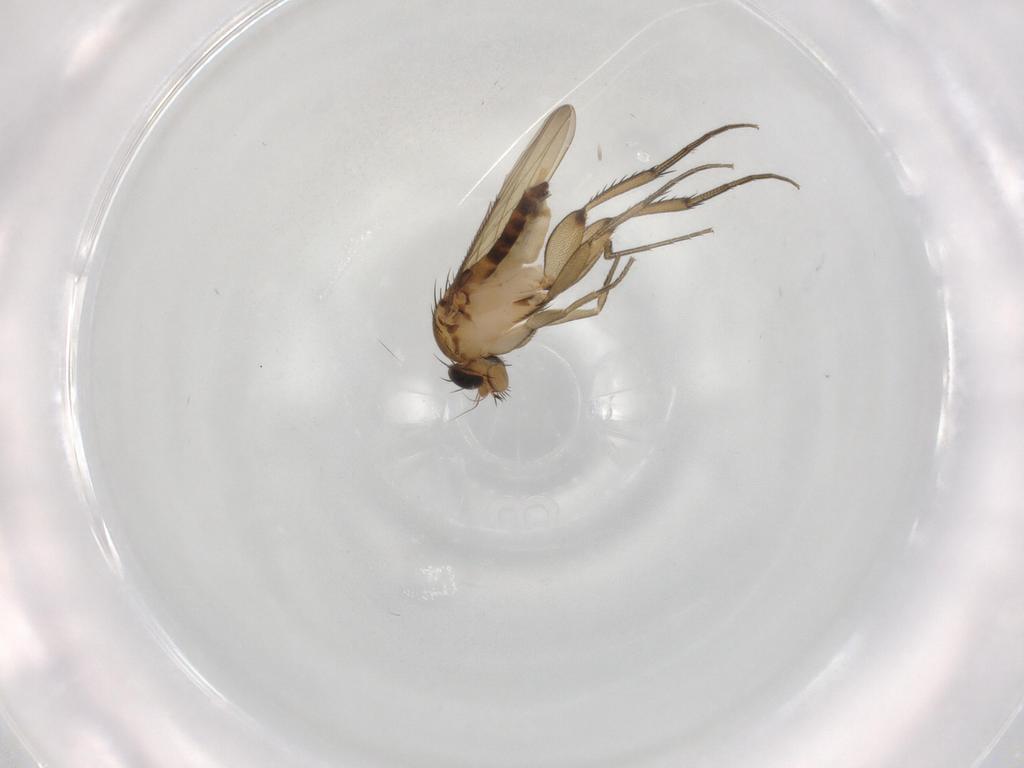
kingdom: Animalia
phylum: Arthropoda
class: Insecta
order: Diptera
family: Phoridae
